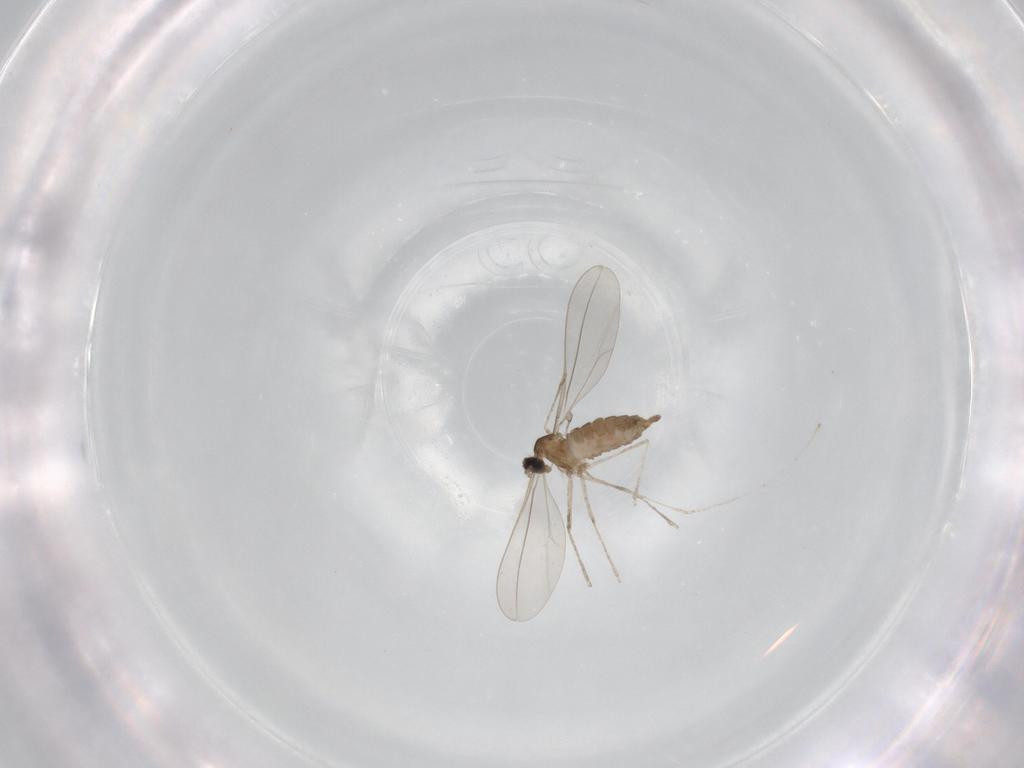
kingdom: Animalia
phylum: Arthropoda
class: Insecta
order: Diptera
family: Cecidomyiidae
